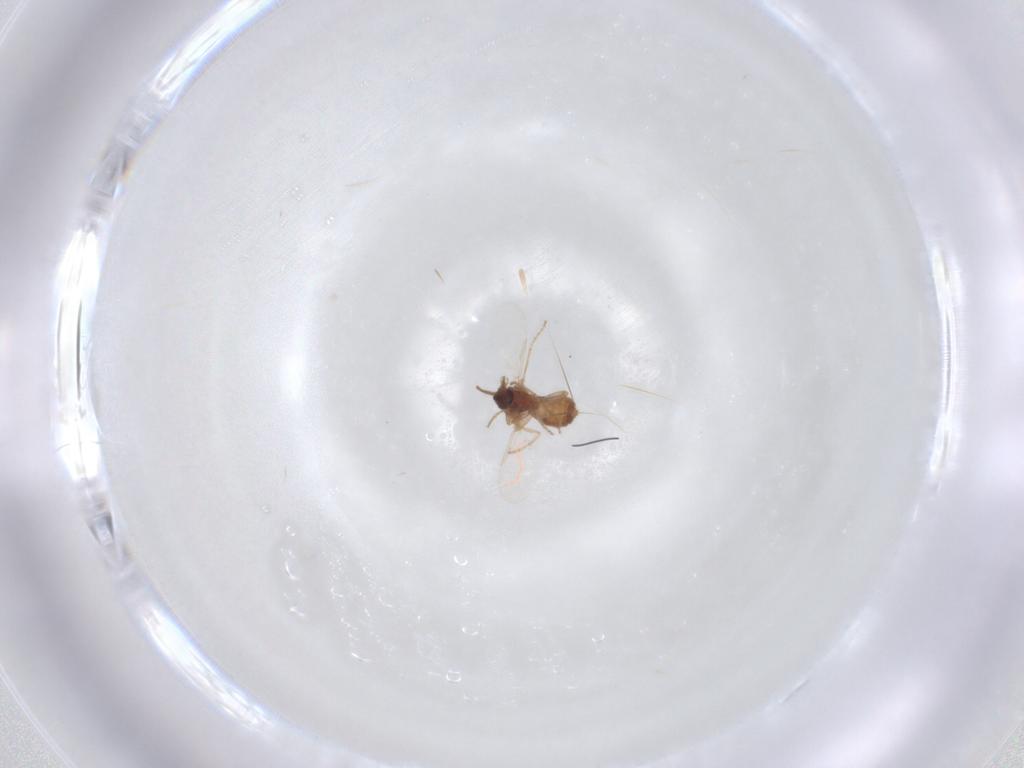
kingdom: Animalia
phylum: Arthropoda
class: Insecta
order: Diptera
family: Ceratopogonidae
